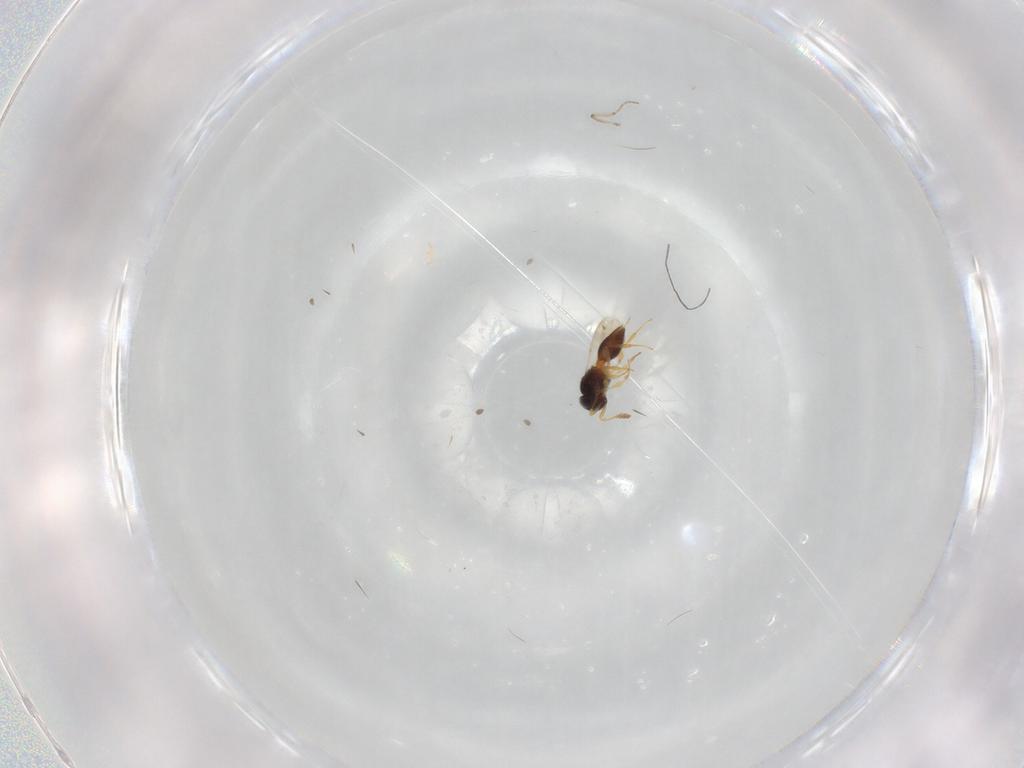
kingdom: Animalia
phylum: Arthropoda
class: Insecta
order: Hymenoptera
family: Platygastridae
